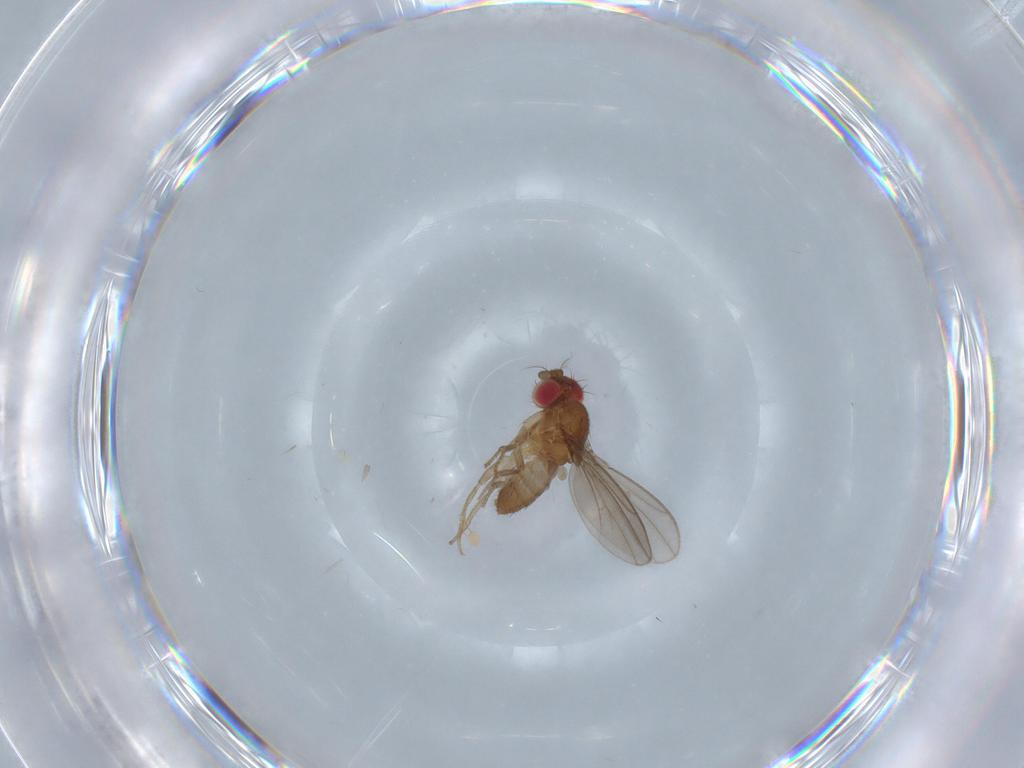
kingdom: Animalia
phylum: Arthropoda
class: Insecta
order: Diptera
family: Drosophilidae
